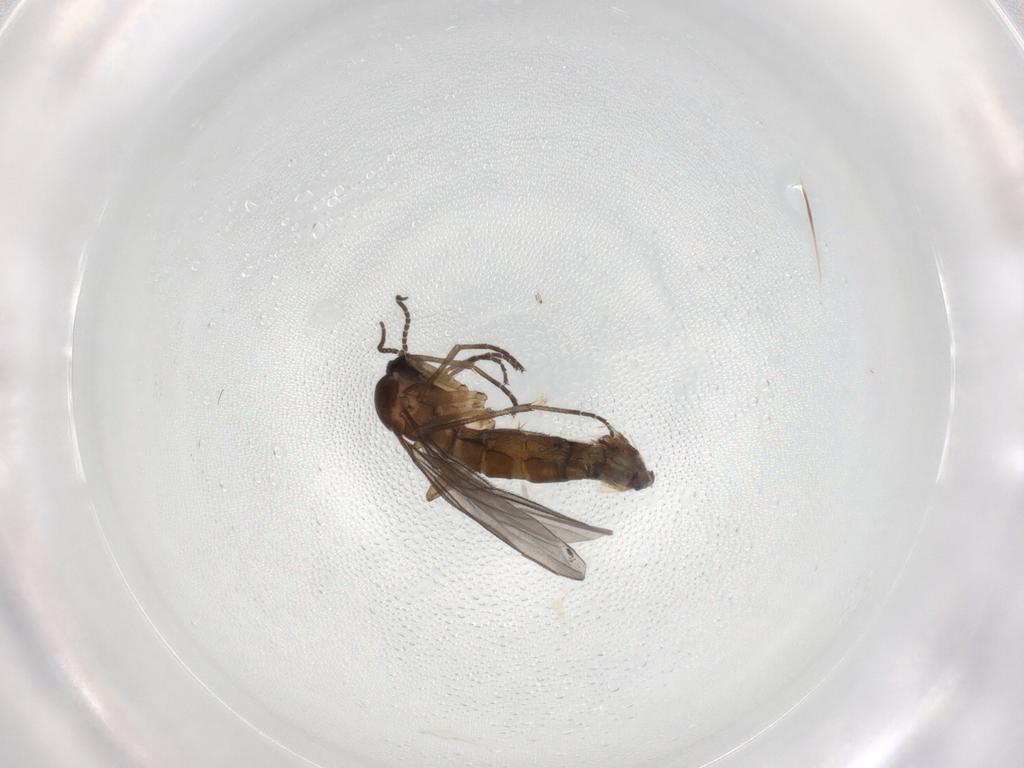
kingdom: Animalia
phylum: Arthropoda
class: Insecta
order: Diptera
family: Sciaridae
